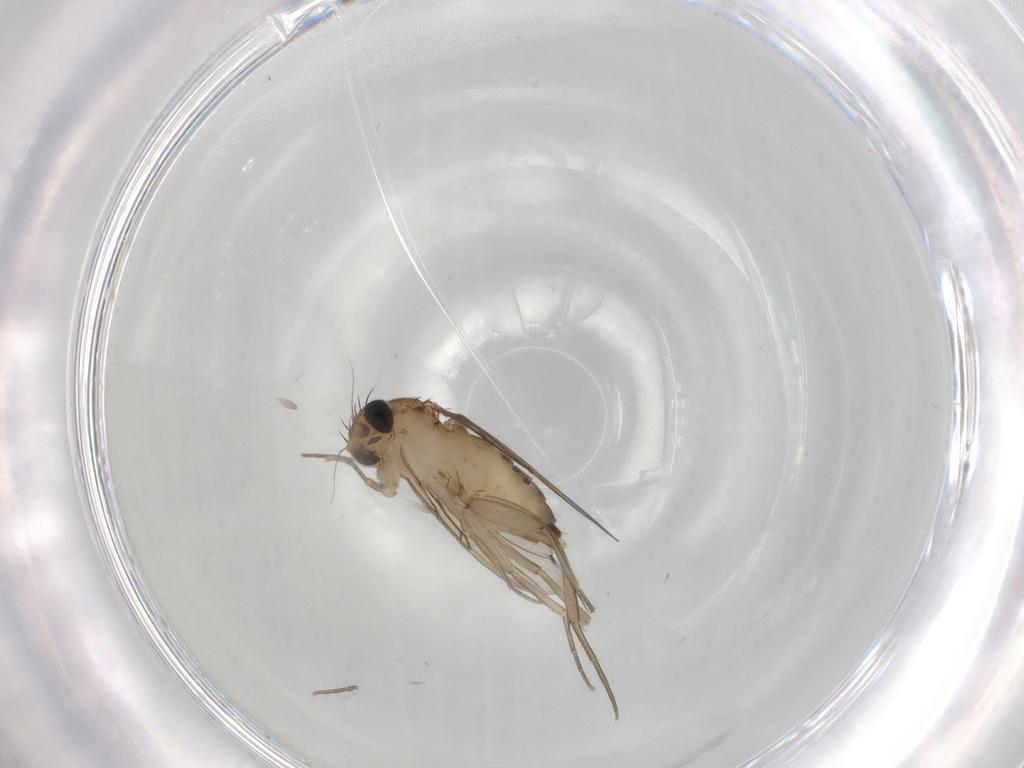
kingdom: Animalia
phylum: Arthropoda
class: Insecta
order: Diptera
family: Phoridae
